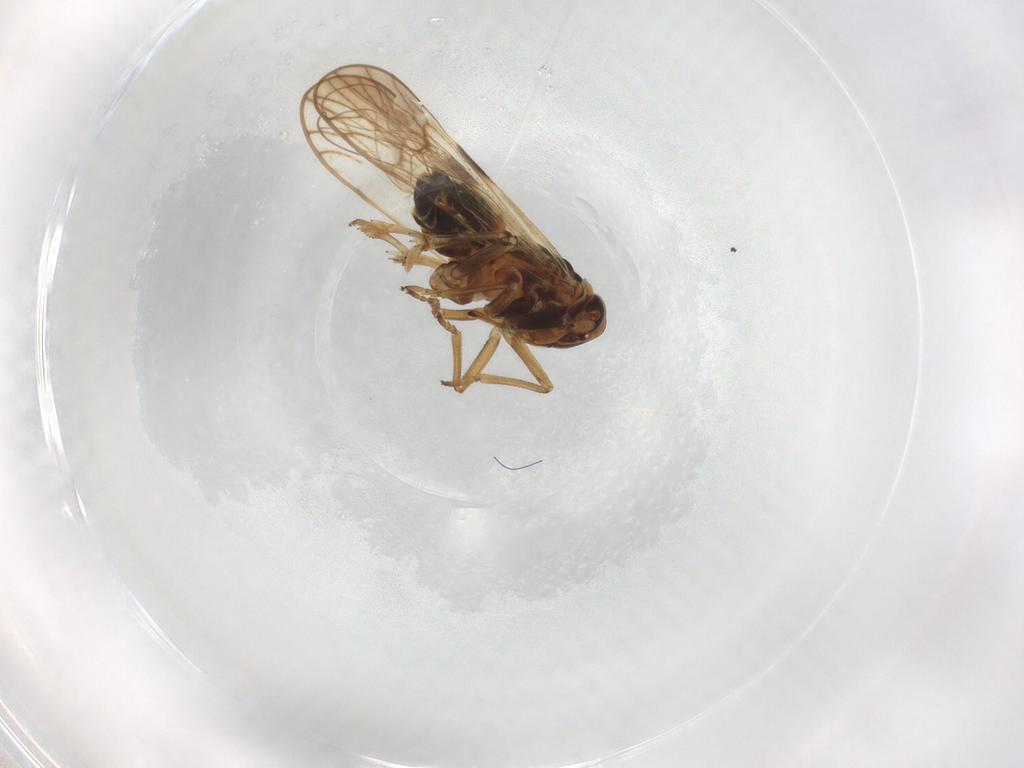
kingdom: Animalia
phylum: Arthropoda
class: Insecta
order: Hemiptera
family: Delphacidae
